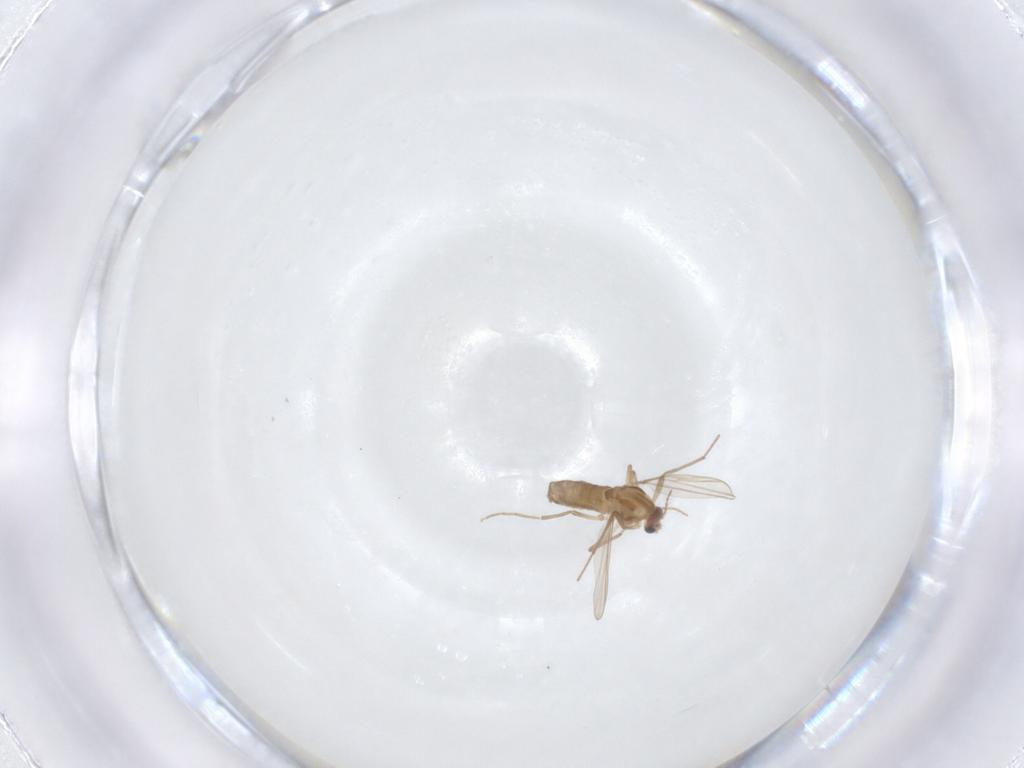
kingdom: Animalia
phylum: Arthropoda
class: Insecta
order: Diptera
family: Chironomidae
